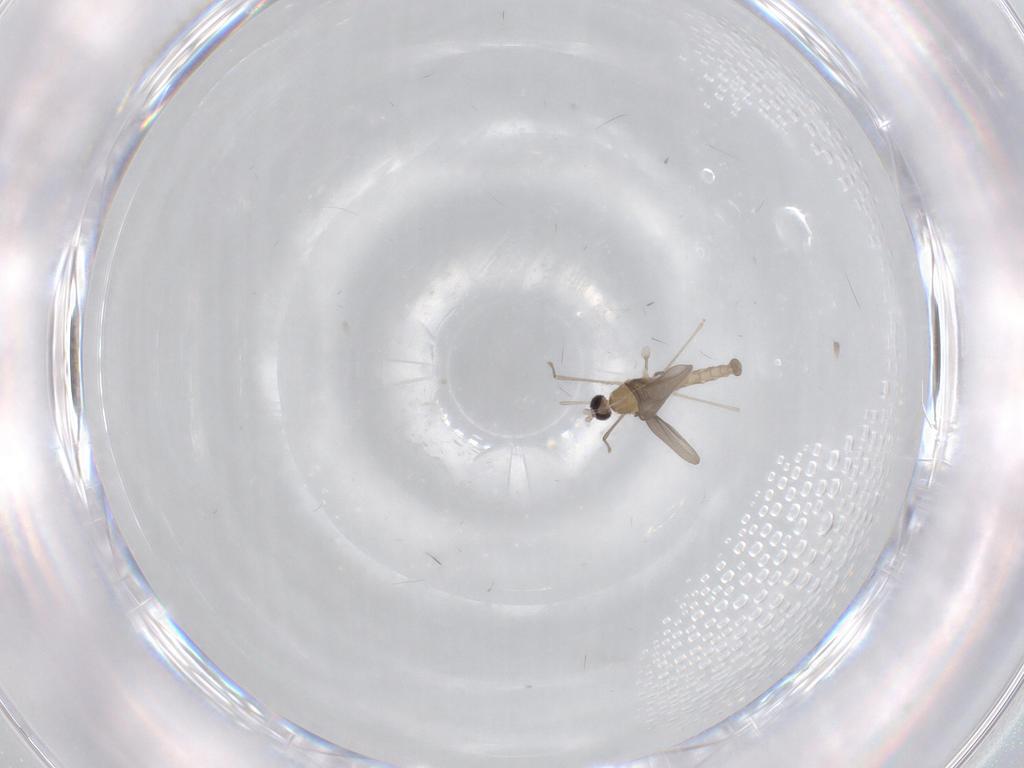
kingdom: Animalia
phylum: Arthropoda
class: Insecta
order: Diptera
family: Cecidomyiidae
